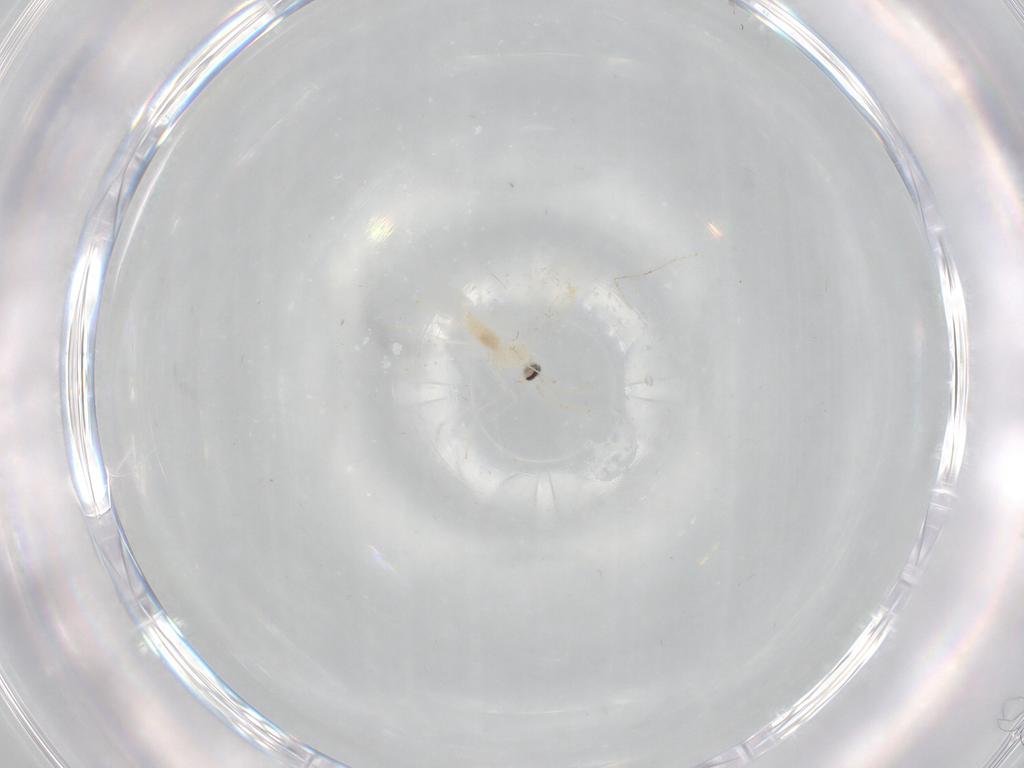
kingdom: Animalia
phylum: Arthropoda
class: Insecta
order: Diptera
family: Cecidomyiidae
